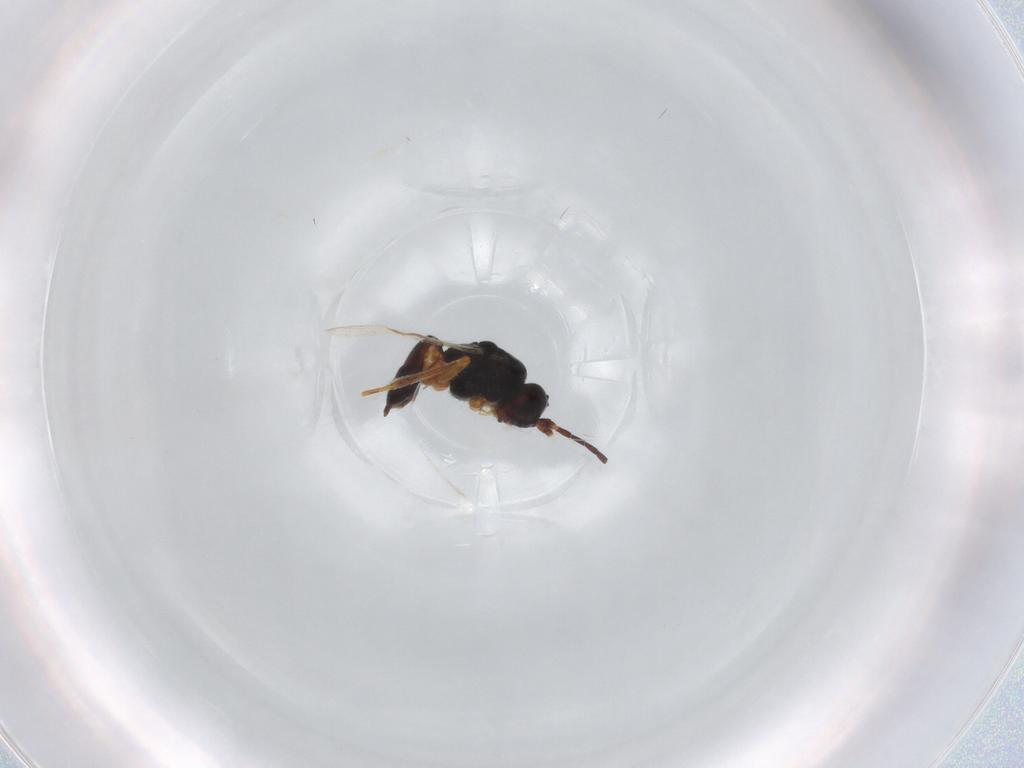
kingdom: Animalia
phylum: Arthropoda
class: Insecta
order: Hymenoptera
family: Braconidae
